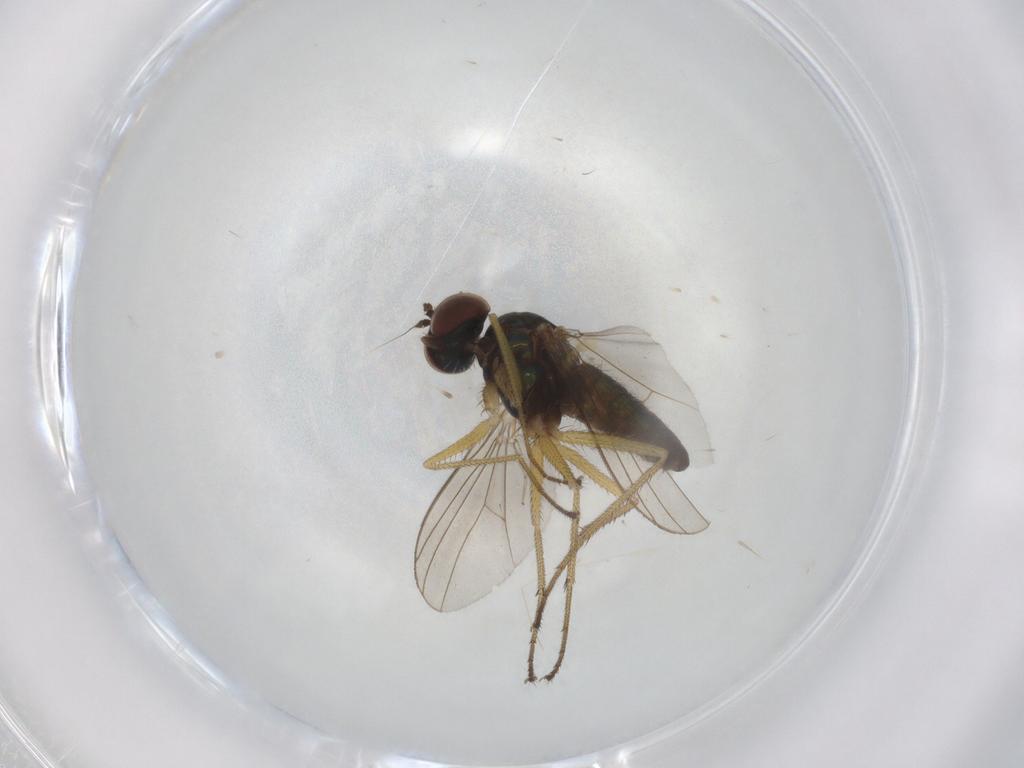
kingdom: Animalia
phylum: Arthropoda
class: Insecta
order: Diptera
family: Dolichopodidae
